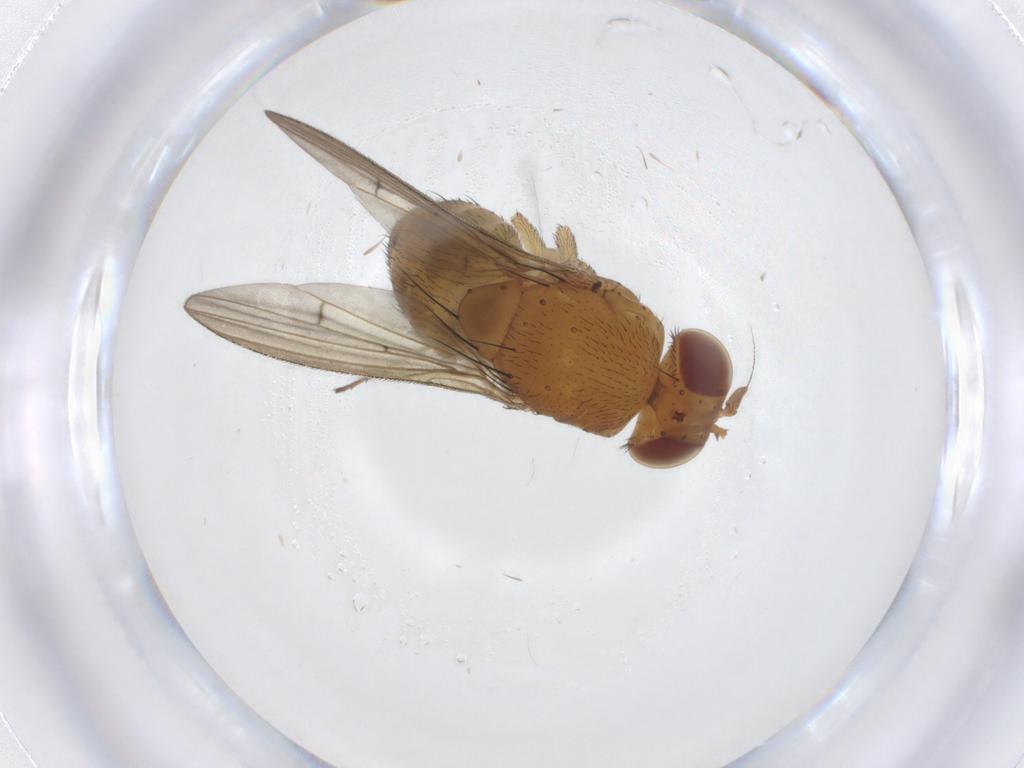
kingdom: Animalia
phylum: Arthropoda
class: Insecta
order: Diptera
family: Dolichopodidae
